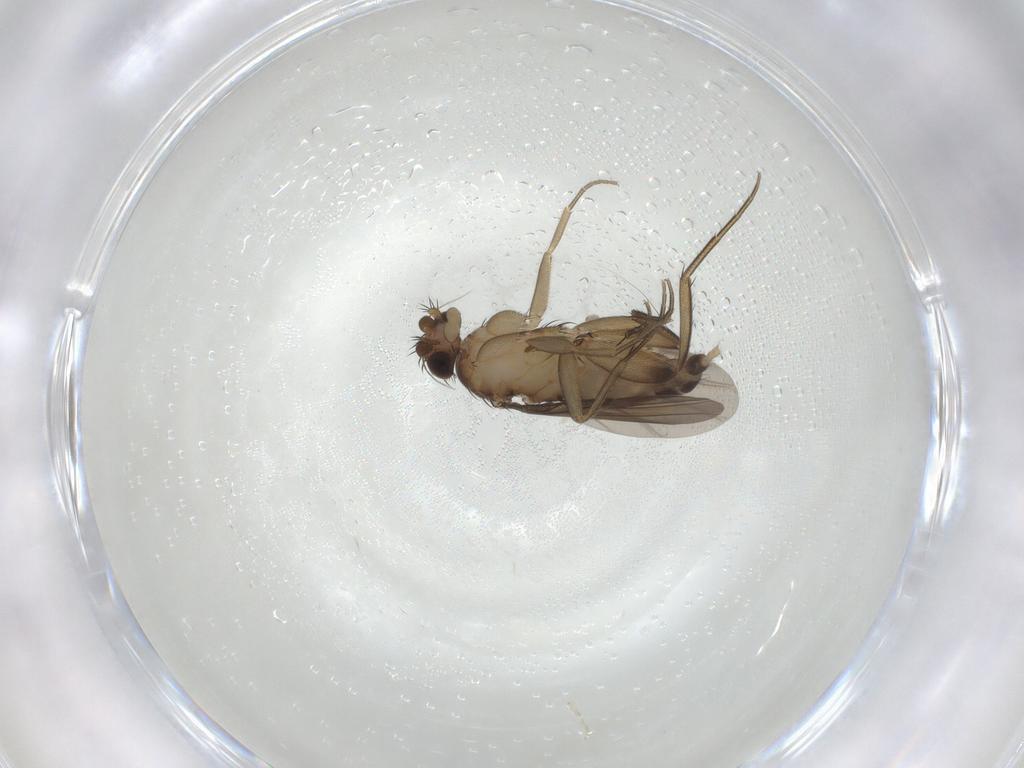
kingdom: Animalia
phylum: Arthropoda
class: Insecta
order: Diptera
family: Phoridae
